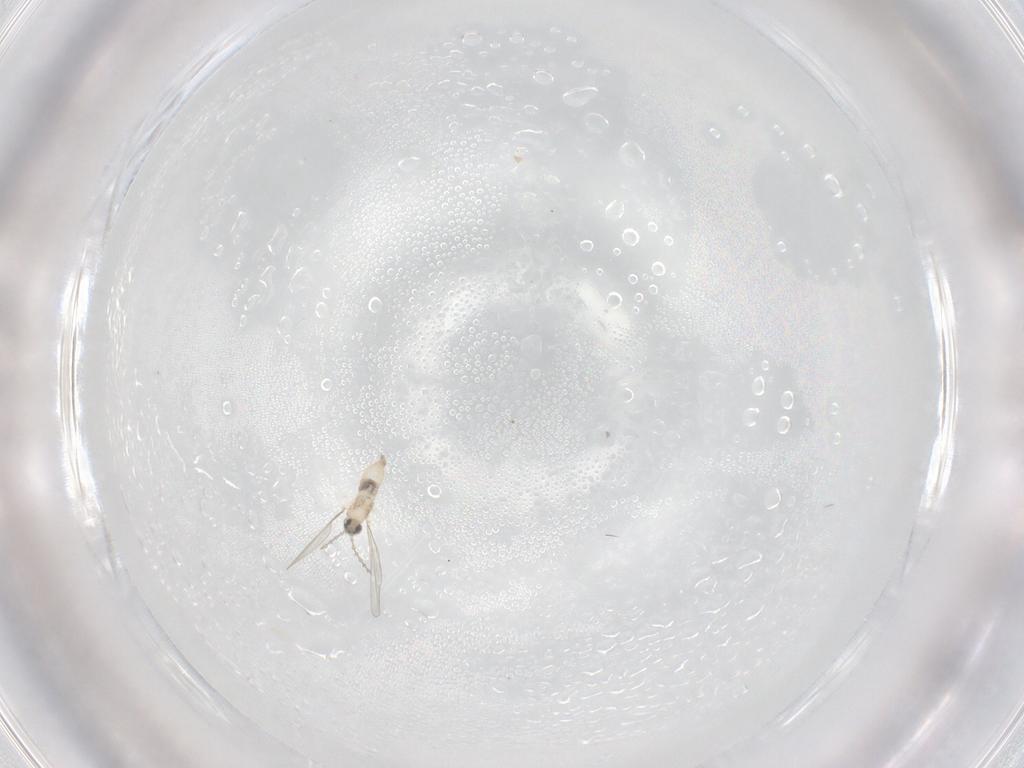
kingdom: Animalia
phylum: Arthropoda
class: Insecta
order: Diptera
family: Cecidomyiidae
